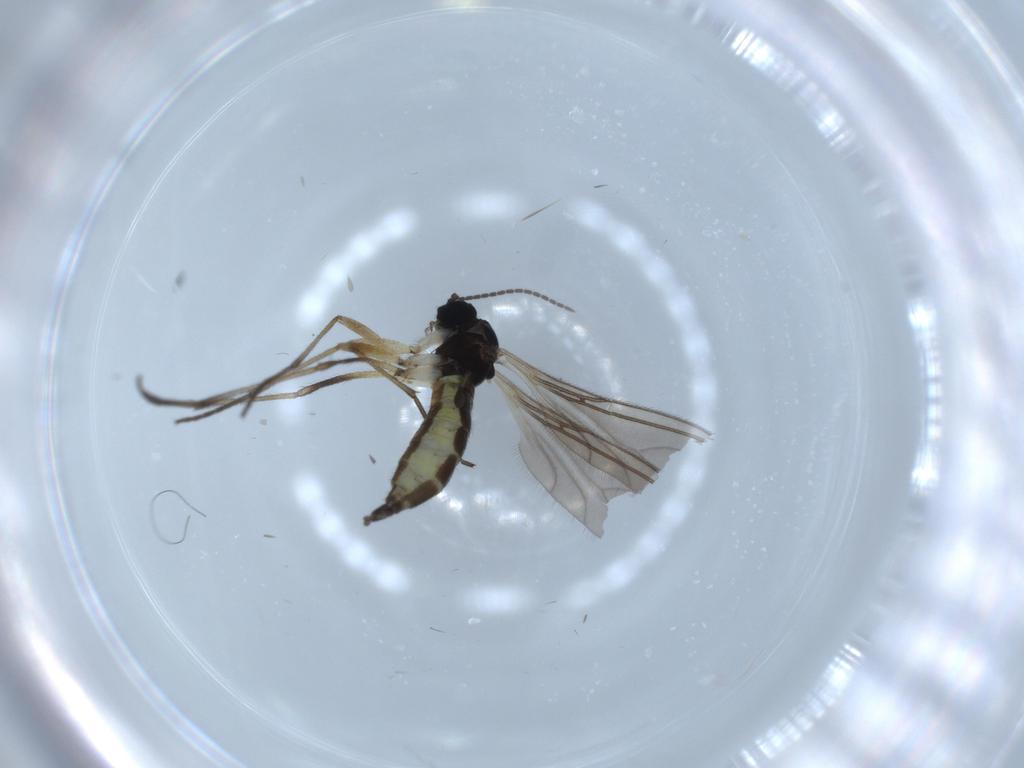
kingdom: Animalia
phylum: Arthropoda
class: Insecta
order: Diptera
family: Sciaridae
